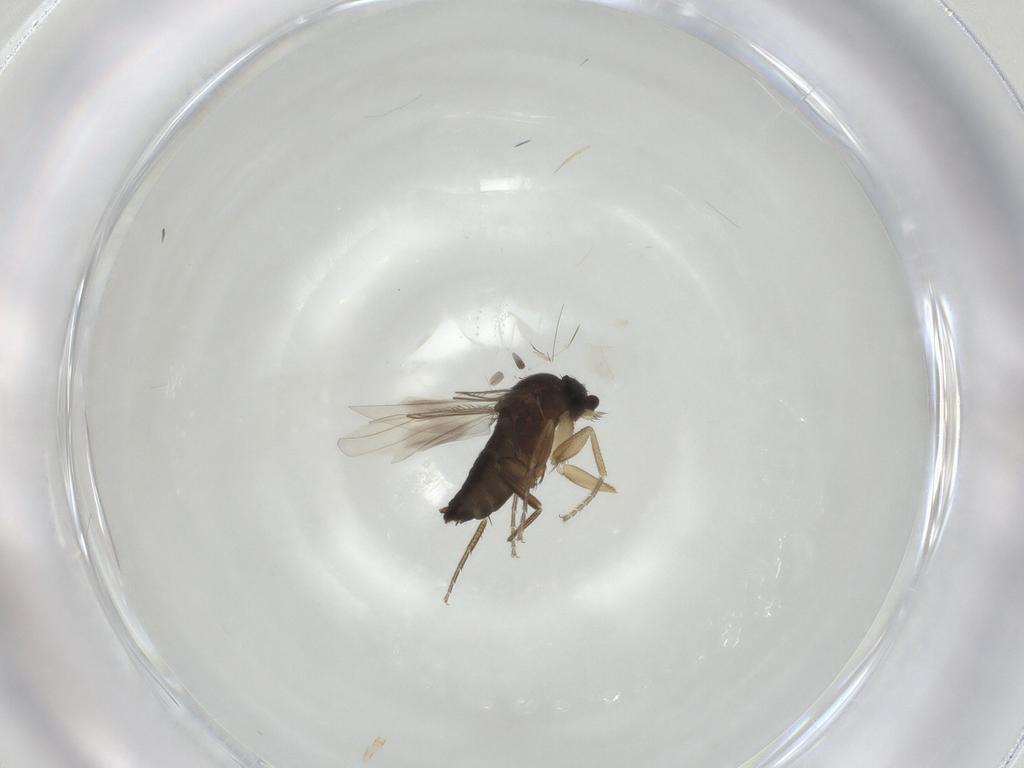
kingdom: Animalia
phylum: Arthropoda
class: Insecta
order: Diptera
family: Phoridae
